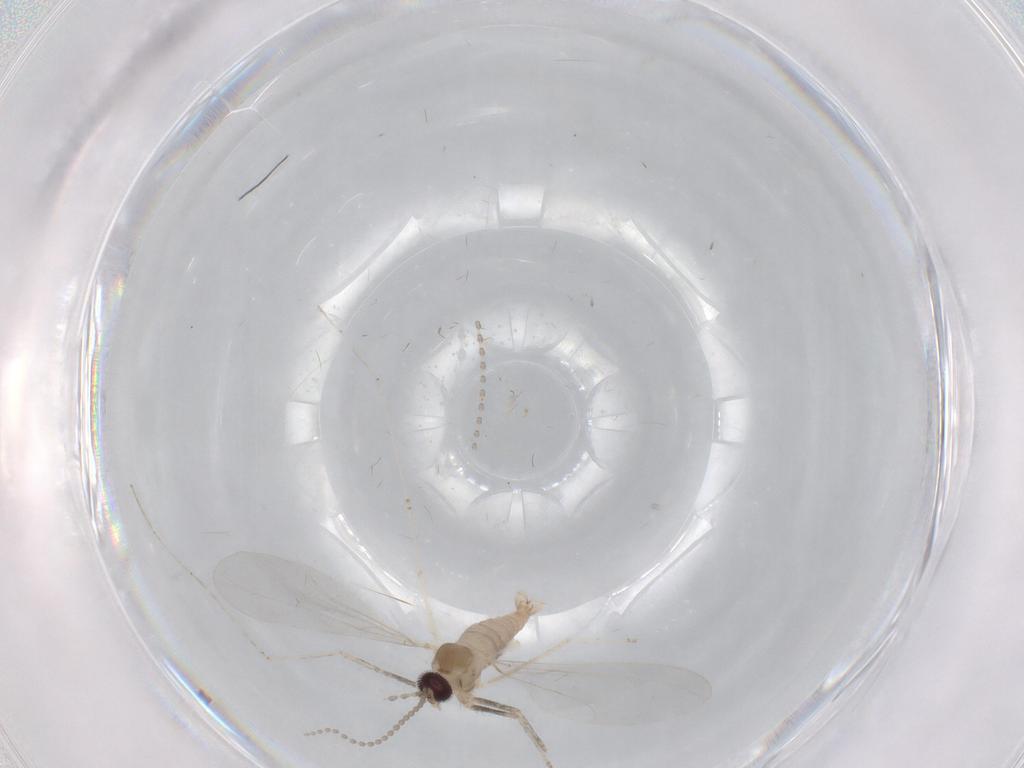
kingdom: Animalia
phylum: Arthropoda
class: Insecta
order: Diptera
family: Cecidomyiidae
